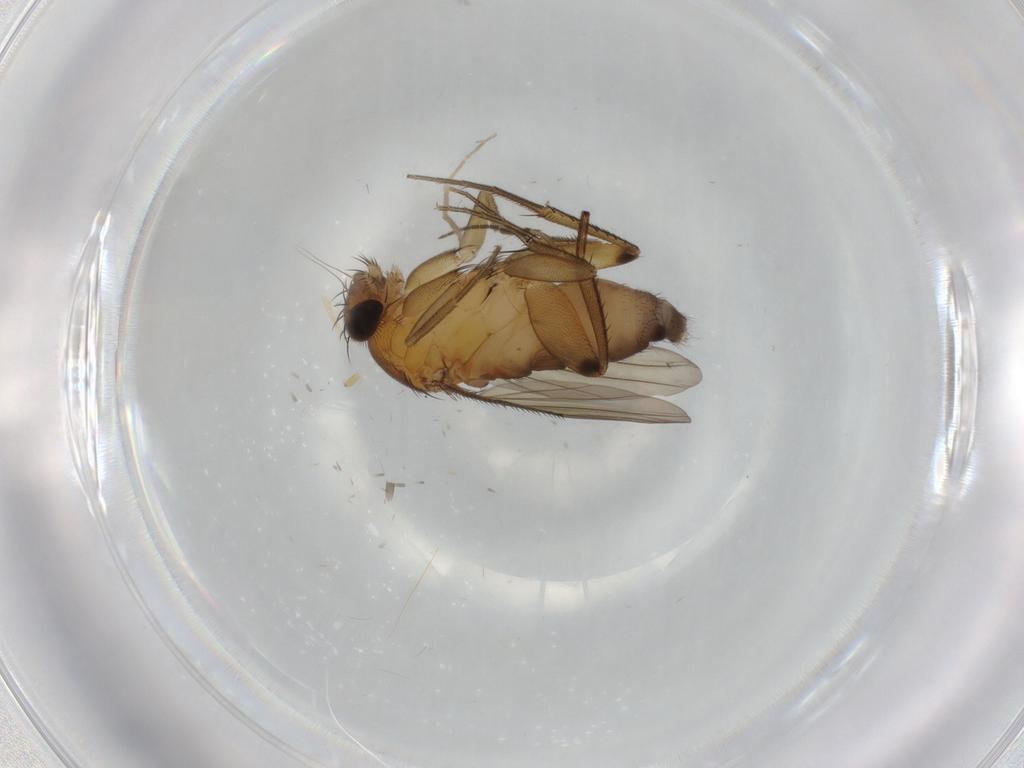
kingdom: Animalia
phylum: Arthropoda
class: Insecta
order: Diptera
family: Phoridae
